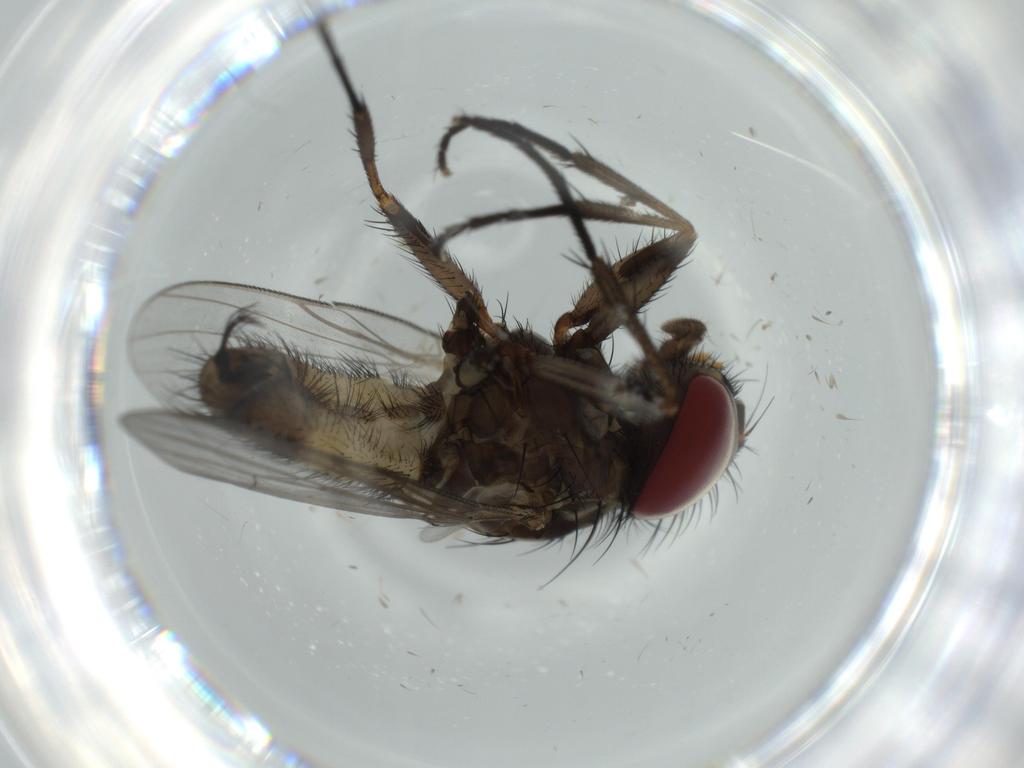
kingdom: Animalia
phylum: Arthropoda
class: Insecta
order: Diptera
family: Fannia
